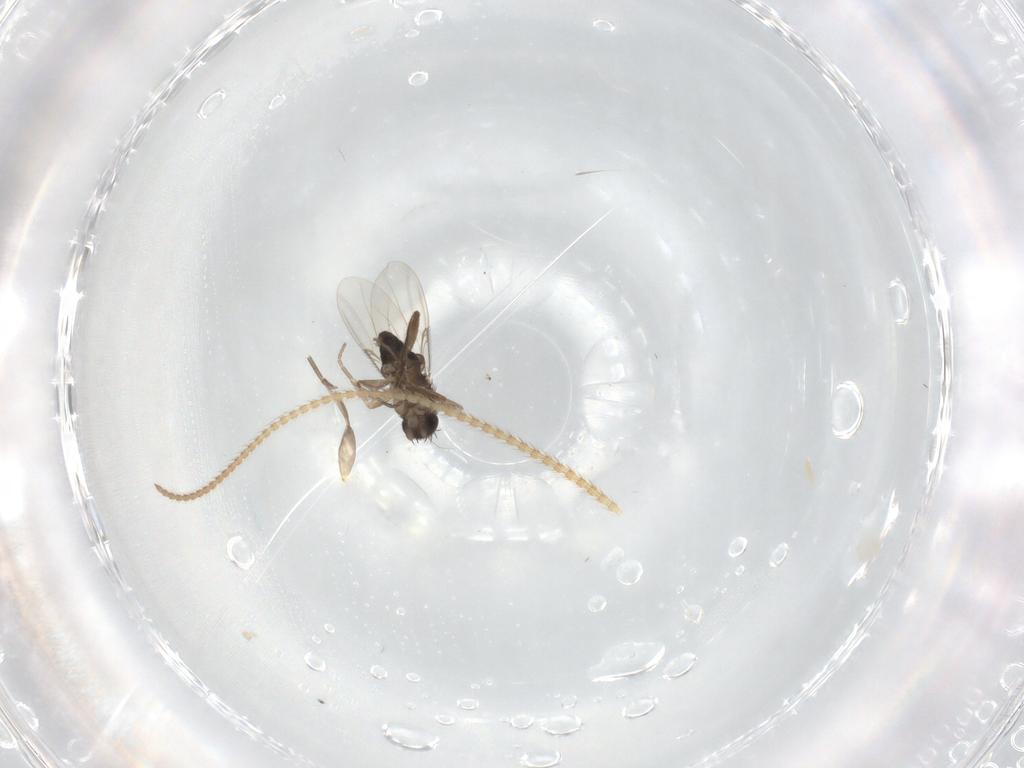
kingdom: Animalia
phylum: Arthropoda
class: Insecta
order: Diptera
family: Phoridae
